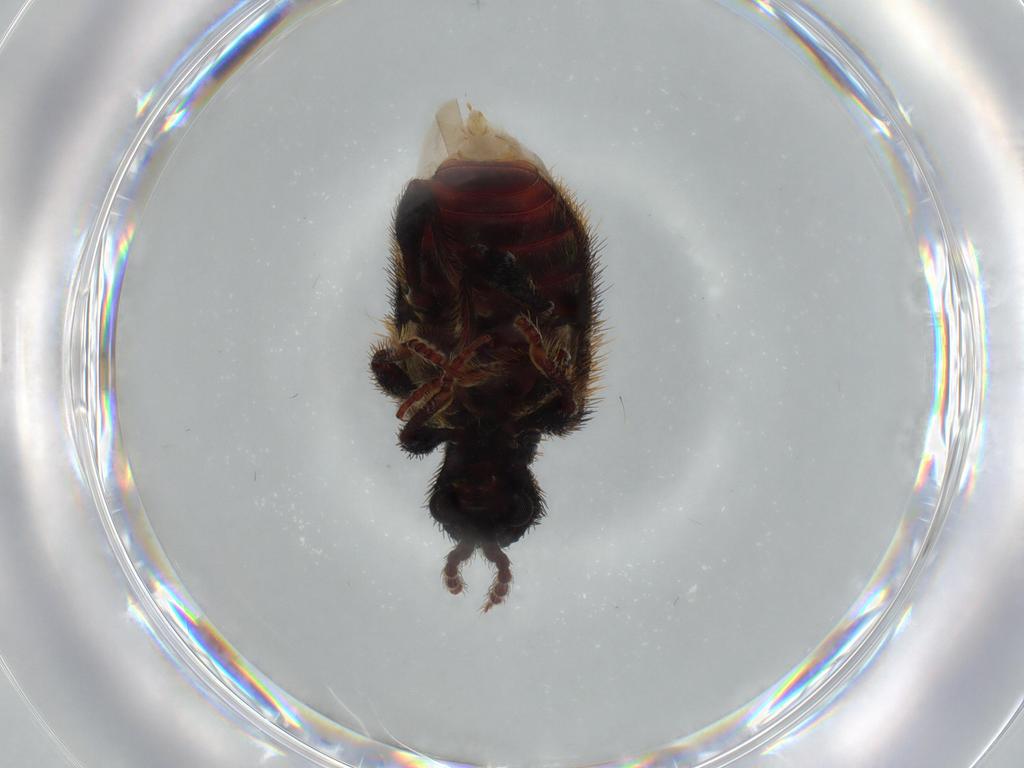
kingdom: Animalia
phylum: Arthropoda
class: Insecta
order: Coleoptera
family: Ptinidae
